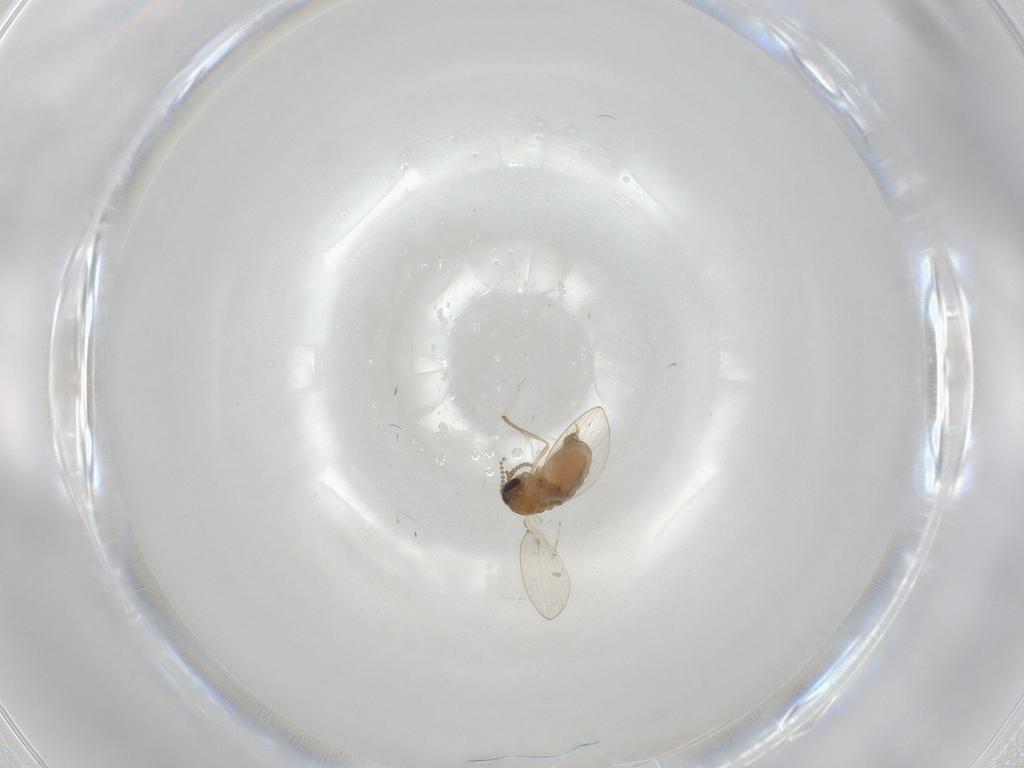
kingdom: Animalia
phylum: Arthropoda
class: Insecta
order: Diptera
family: Psychodidae
